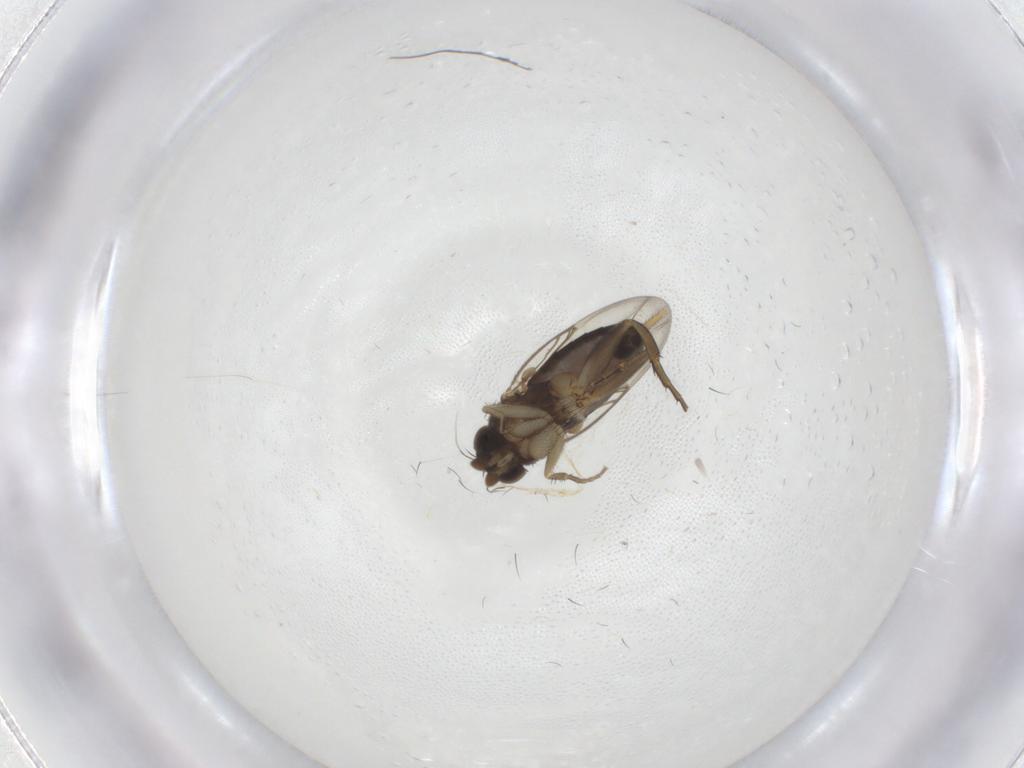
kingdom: Animalia
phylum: Arthropoda
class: Insecta
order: Diptera
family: Phoridae
